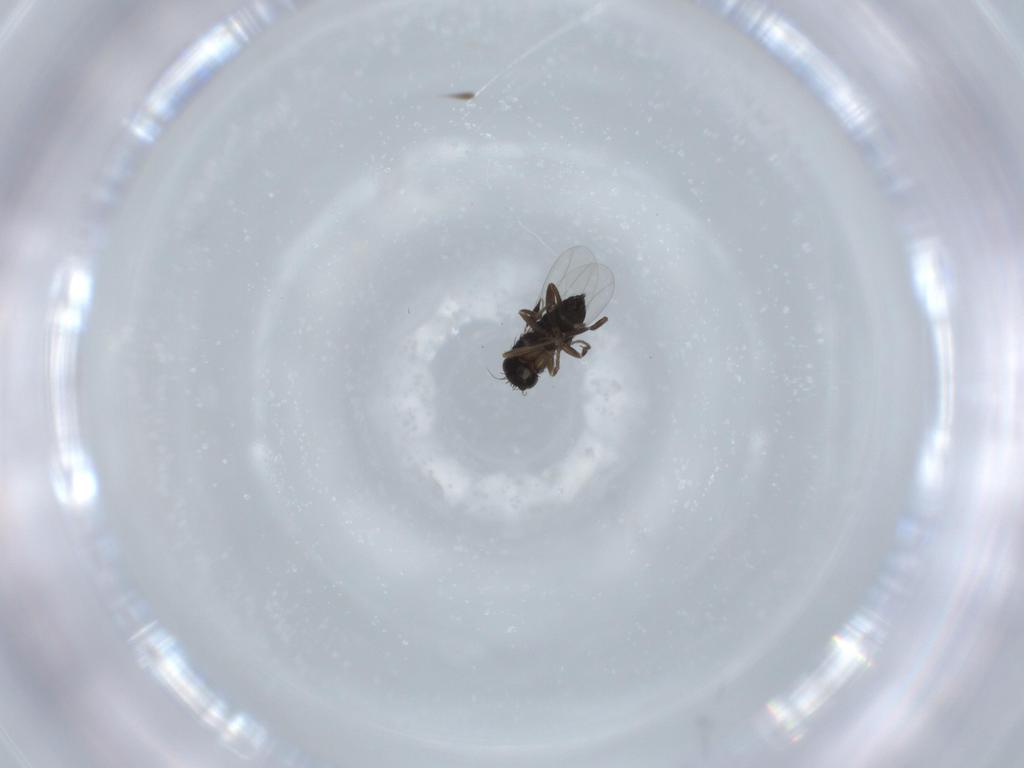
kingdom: Animalia
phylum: Arthropoda
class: Insecta
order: Diptera
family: Phoridae
